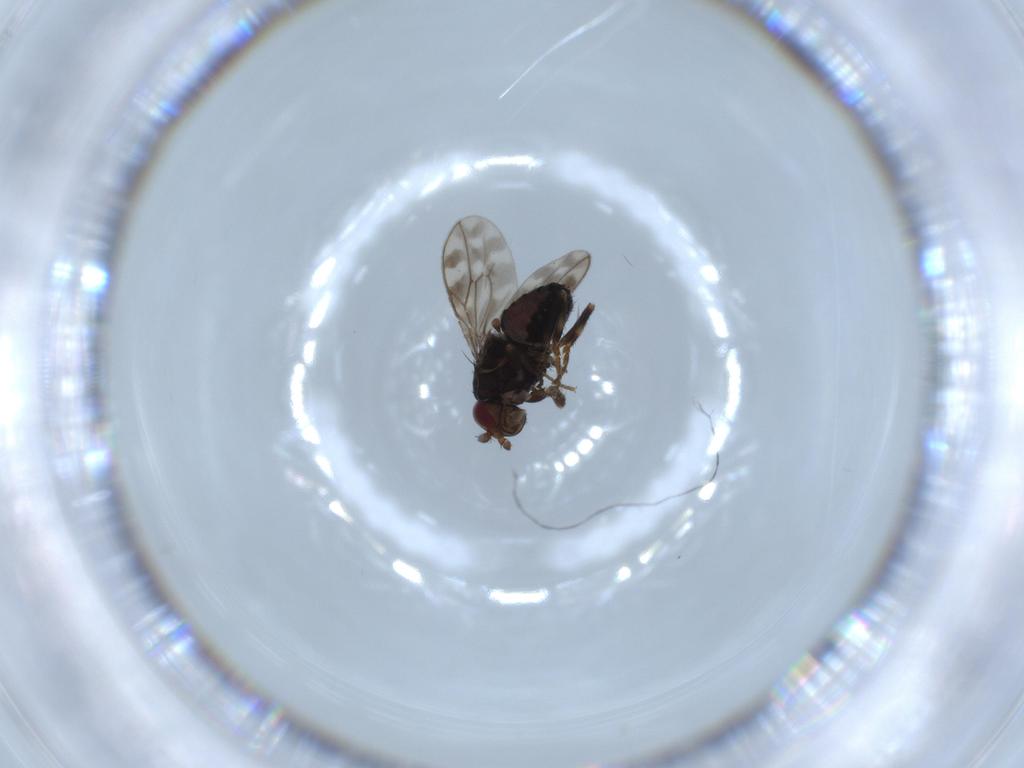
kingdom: Animalia
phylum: Arthropoda
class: Insecta
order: Diptera
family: Sphaeroceridae
